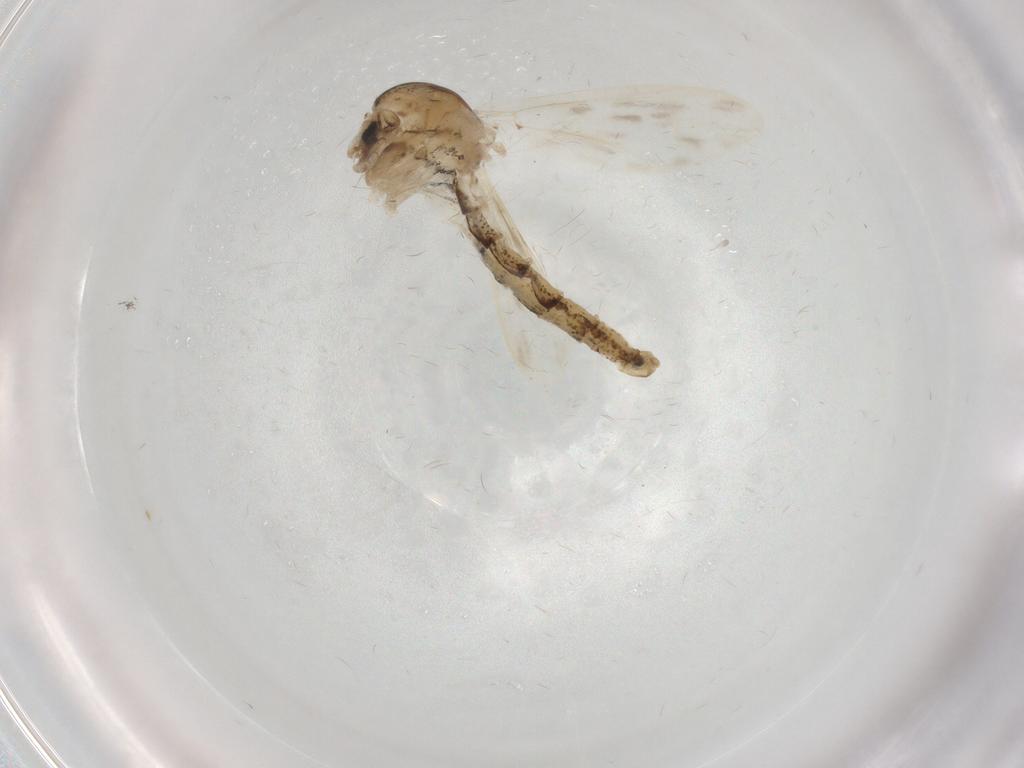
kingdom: Animalia
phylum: Arthropoda
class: Insecta
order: Diptera
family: Chaoboridae
